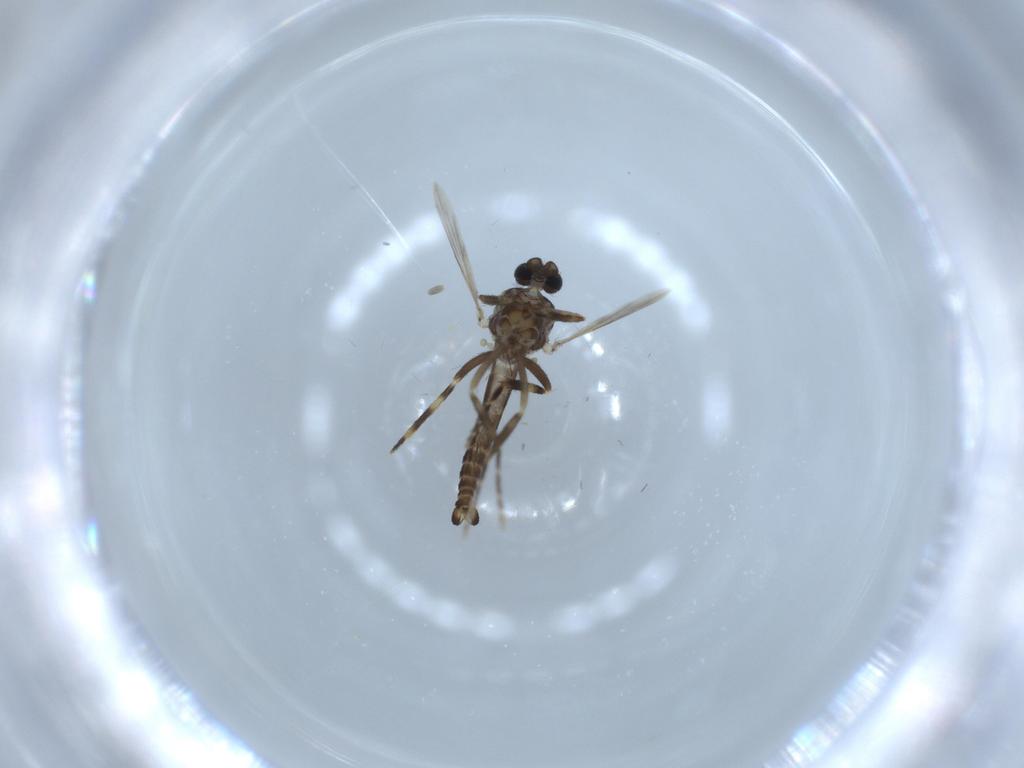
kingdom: Animalia
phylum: Arthropoda
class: Insecta
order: Diptera
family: Ceratopogonidae
